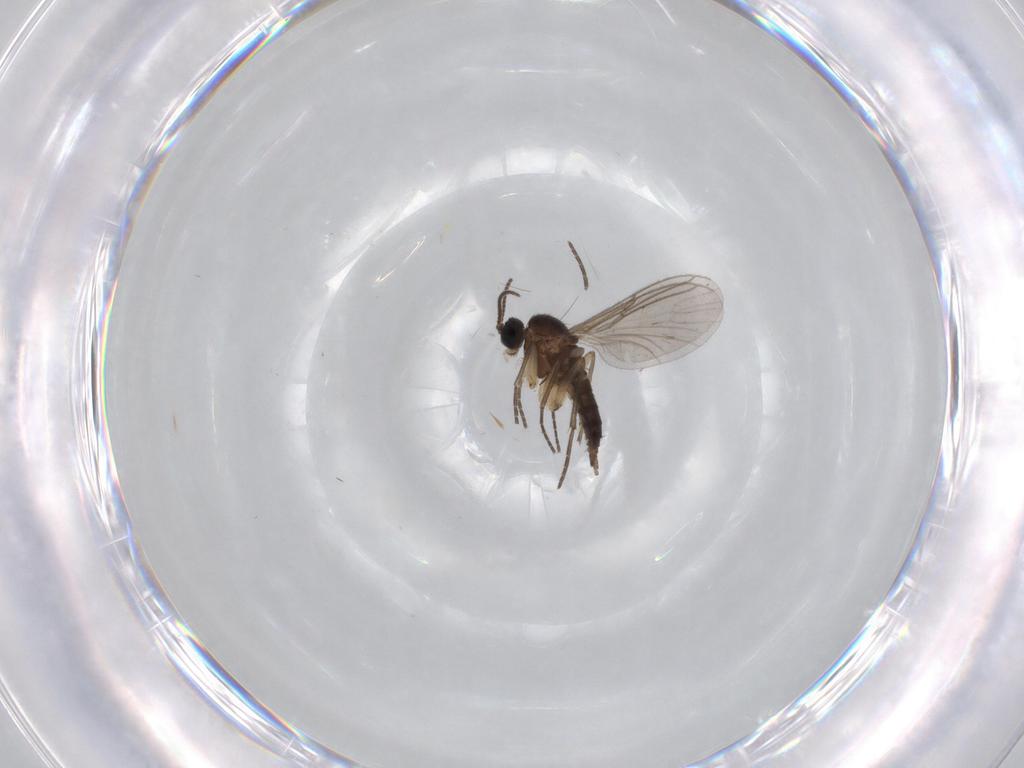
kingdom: Animalia
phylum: Arthropoda
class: Insecta
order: Diptera
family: Sciaridae
